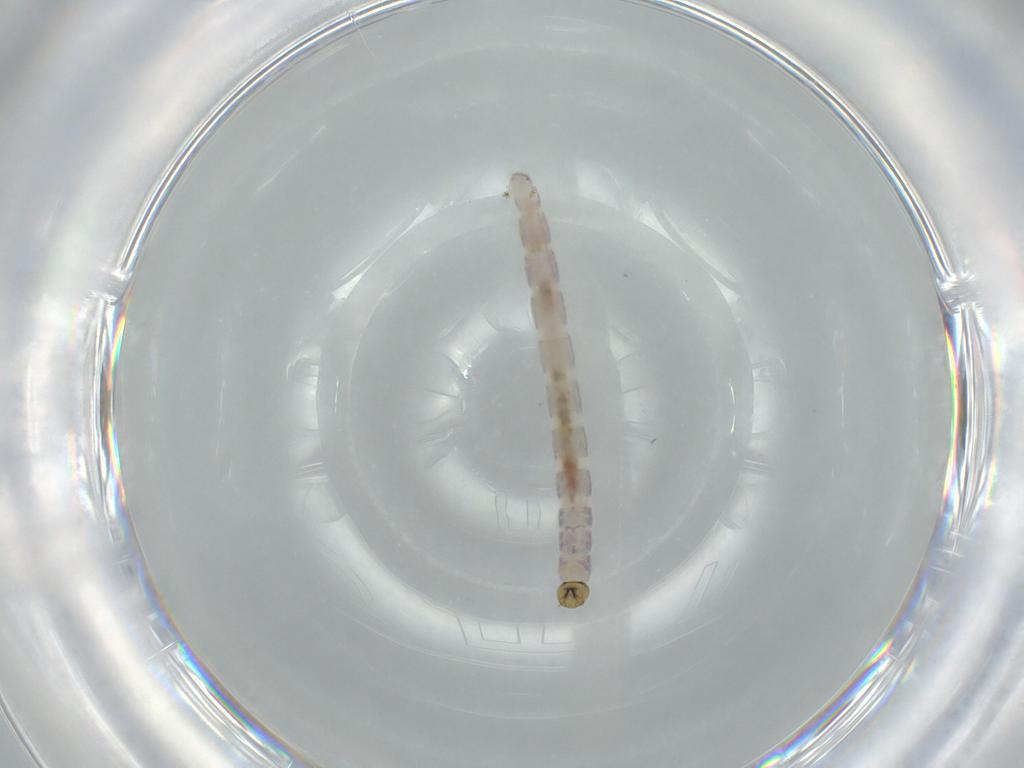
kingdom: Animalia
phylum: Arthropoda
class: Insecta
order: Diptera
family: Chironomidae
